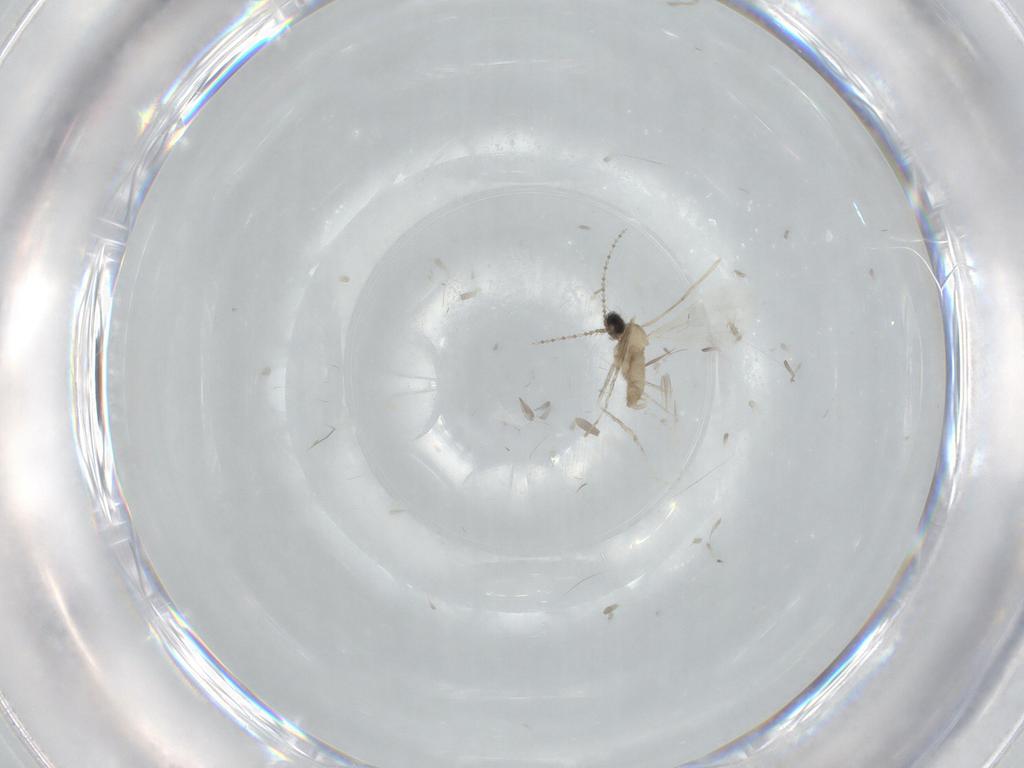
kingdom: Animalia
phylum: Arthropoda
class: Insecta
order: Diptera
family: Cecidomyiidae
